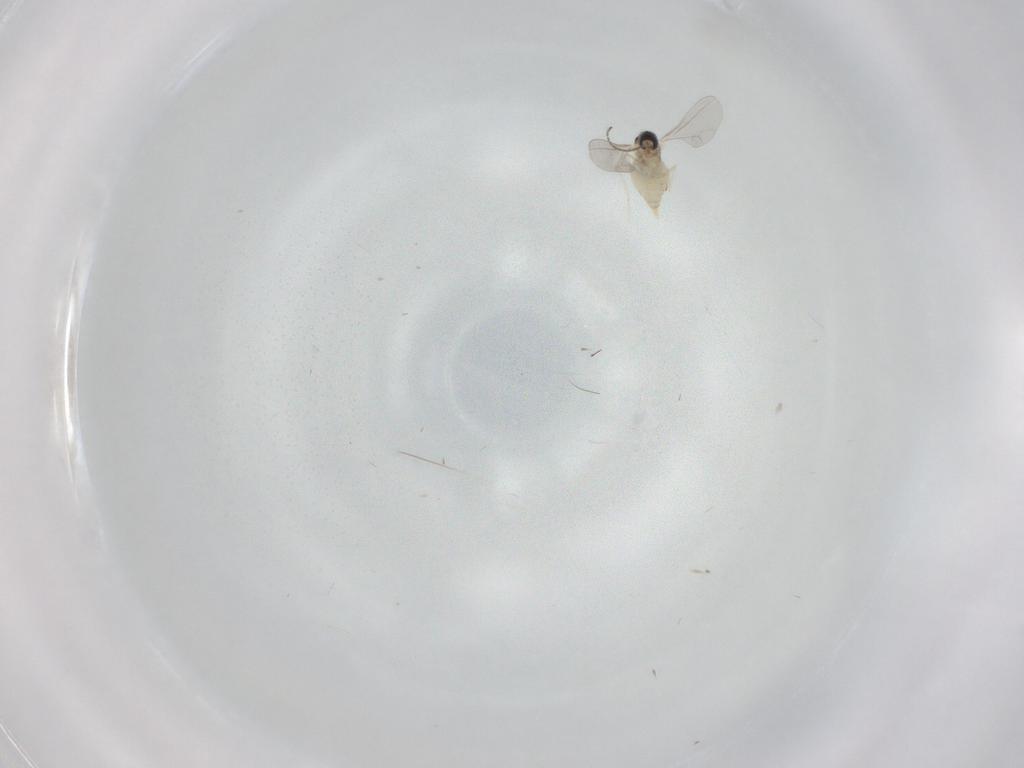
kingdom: Animalia
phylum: Arthropoda
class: Insecta
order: Diptera
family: Cecidomyiidae
